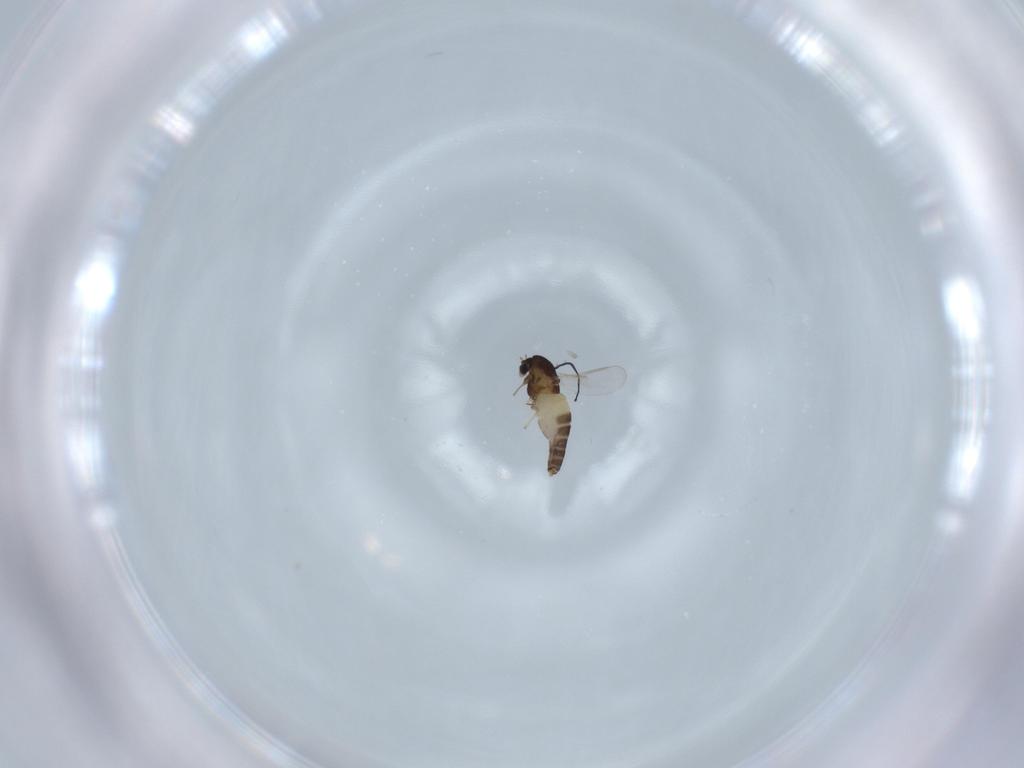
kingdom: Animalia
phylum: Arthropoda
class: Insecta
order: Diptera
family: Chironomidae
